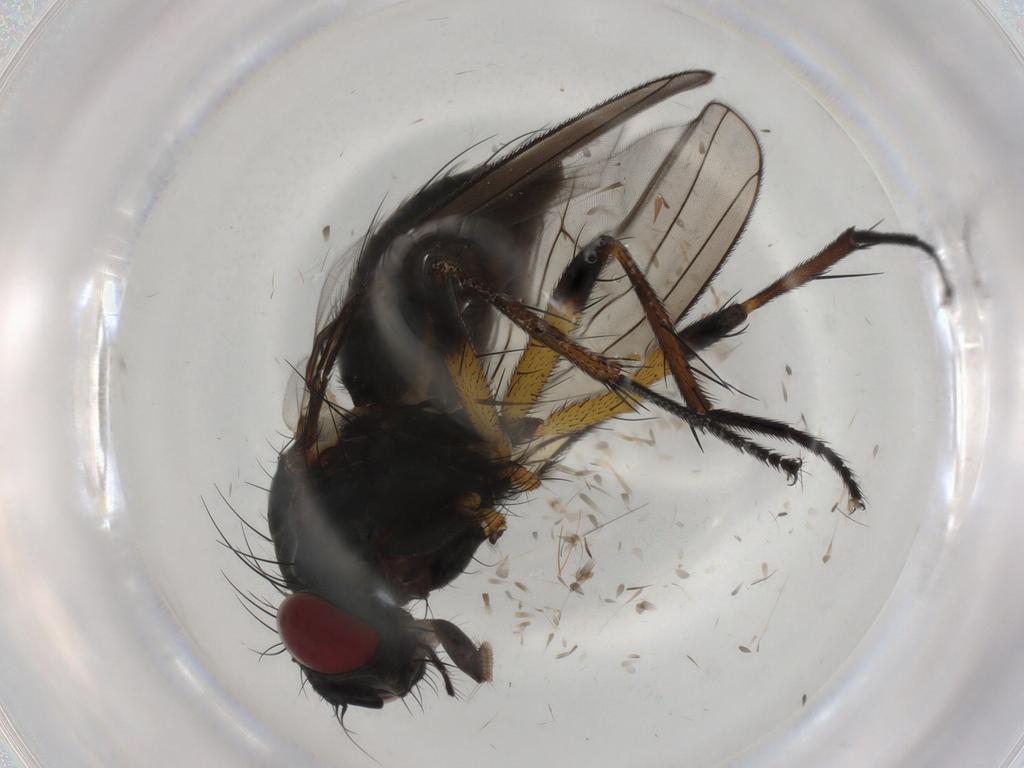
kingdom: Animalia
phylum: Arthropoda
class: Insecta
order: Diptera
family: Muscidae
